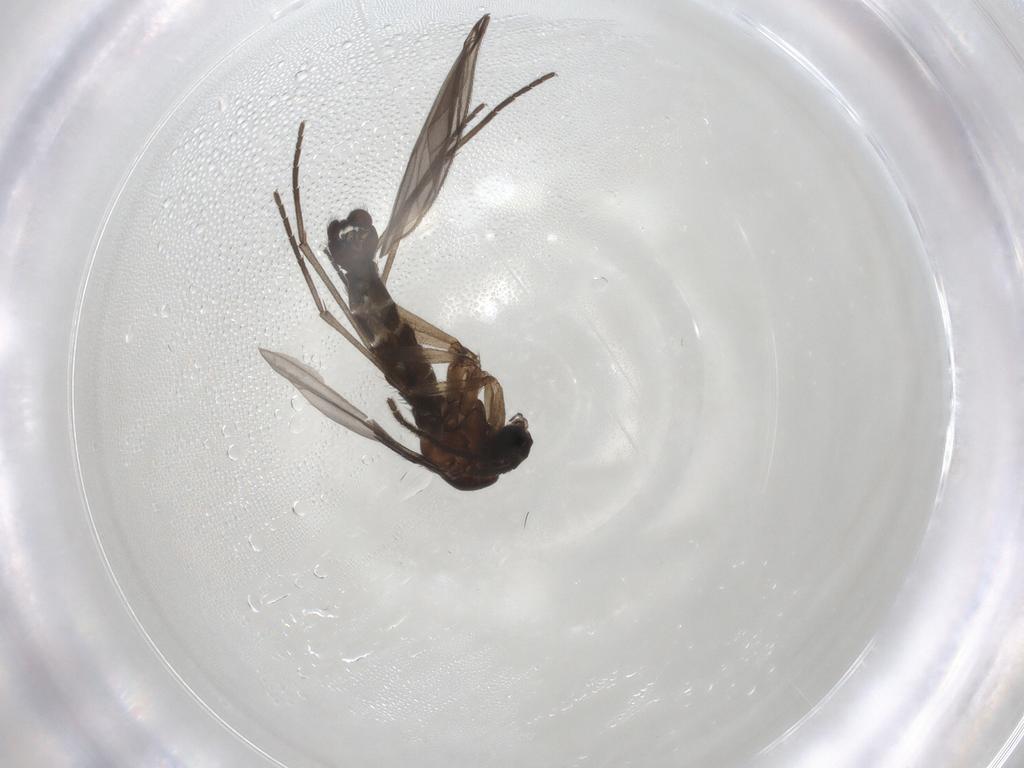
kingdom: Animalia
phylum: Arthropoda
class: Insecta
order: Diptera
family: Sciaridae
